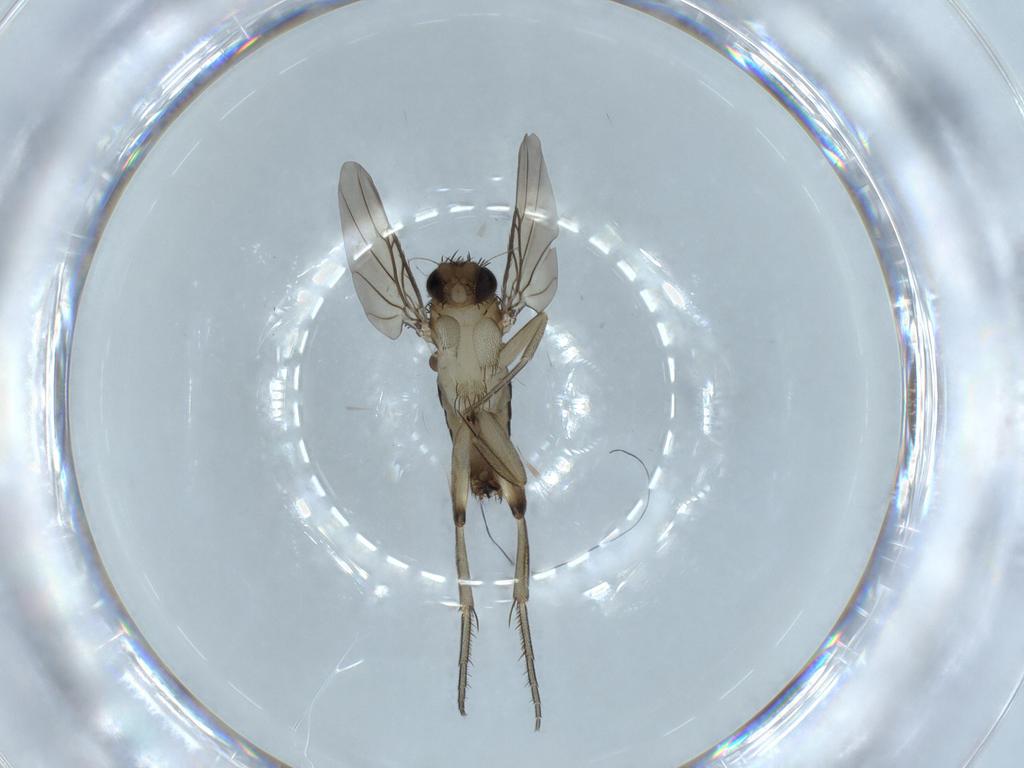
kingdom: Animalia
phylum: Arthropoda
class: Insecta
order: Diptera
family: Phoridae
